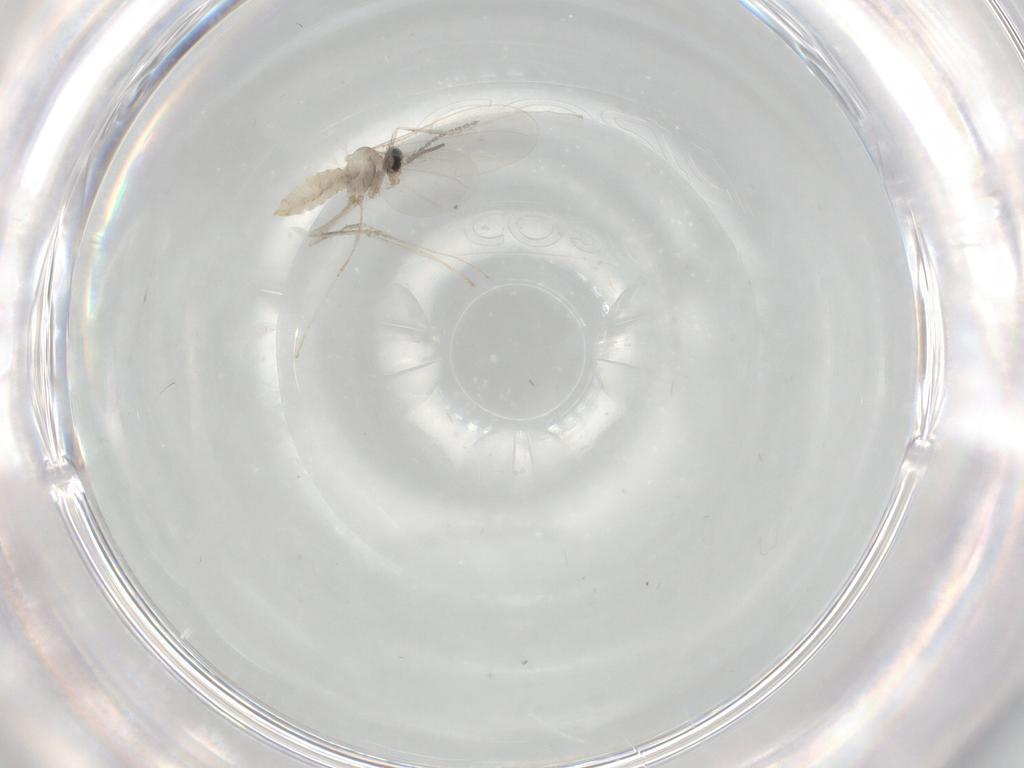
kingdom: Animalia
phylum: Arthropoda
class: Insecta
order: Diptera
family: Cecidomyiidae
